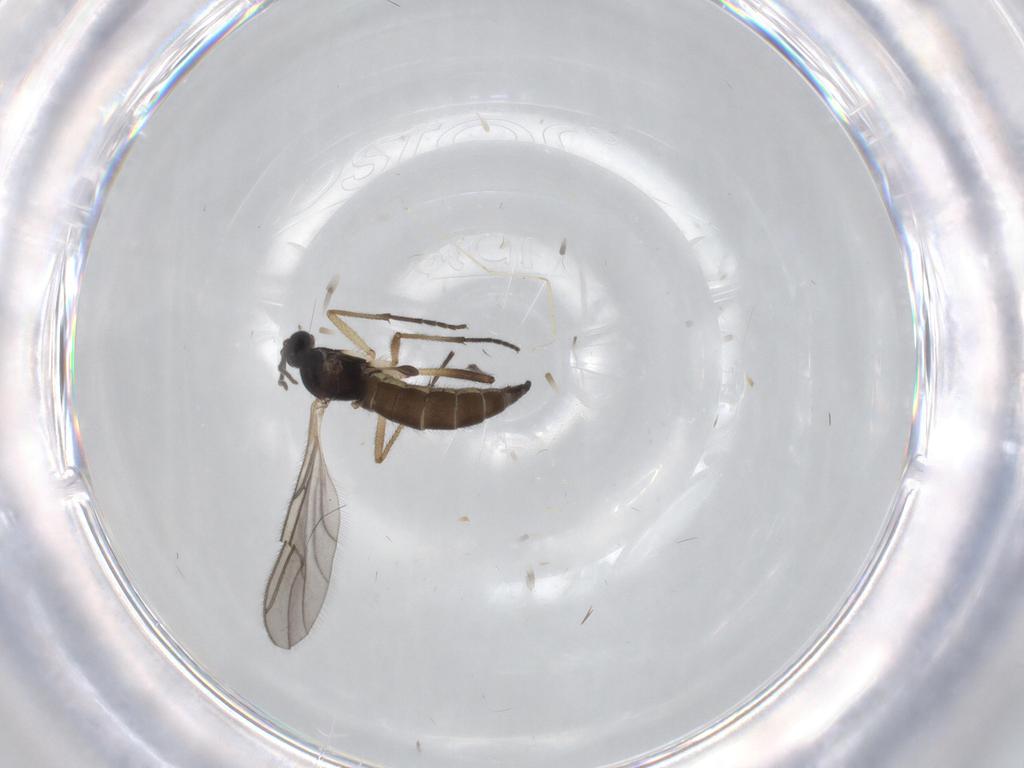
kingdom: Animalia
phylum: Arthropoda
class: Insecta
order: Diptera
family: Sciaridae
